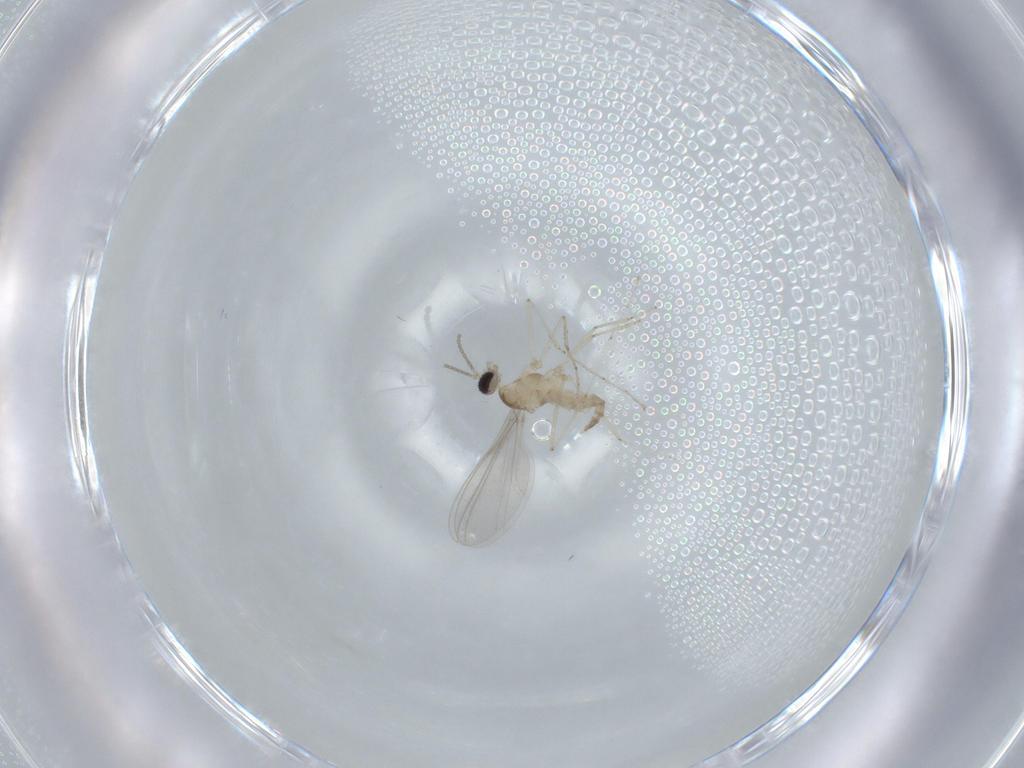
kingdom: Animalia
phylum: Arthropoda
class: Insecta
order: Diptera
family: Cecidomyiidae
